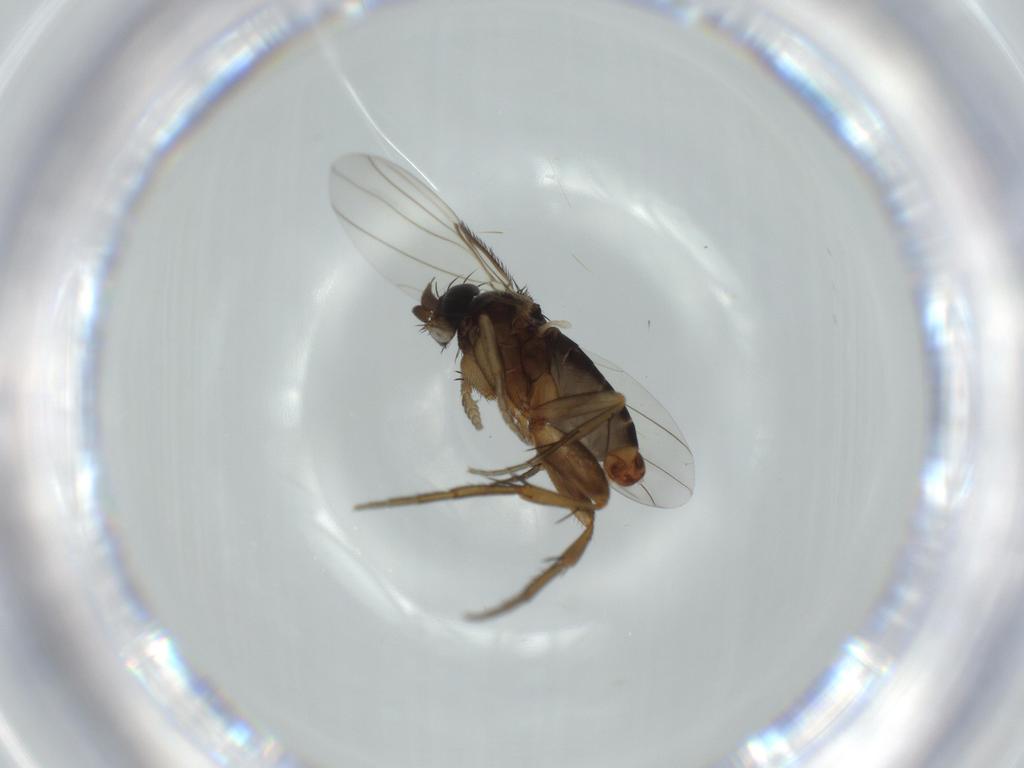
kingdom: Animalia
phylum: Arthropoda
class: Insecta
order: Diptera
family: Phoridae
